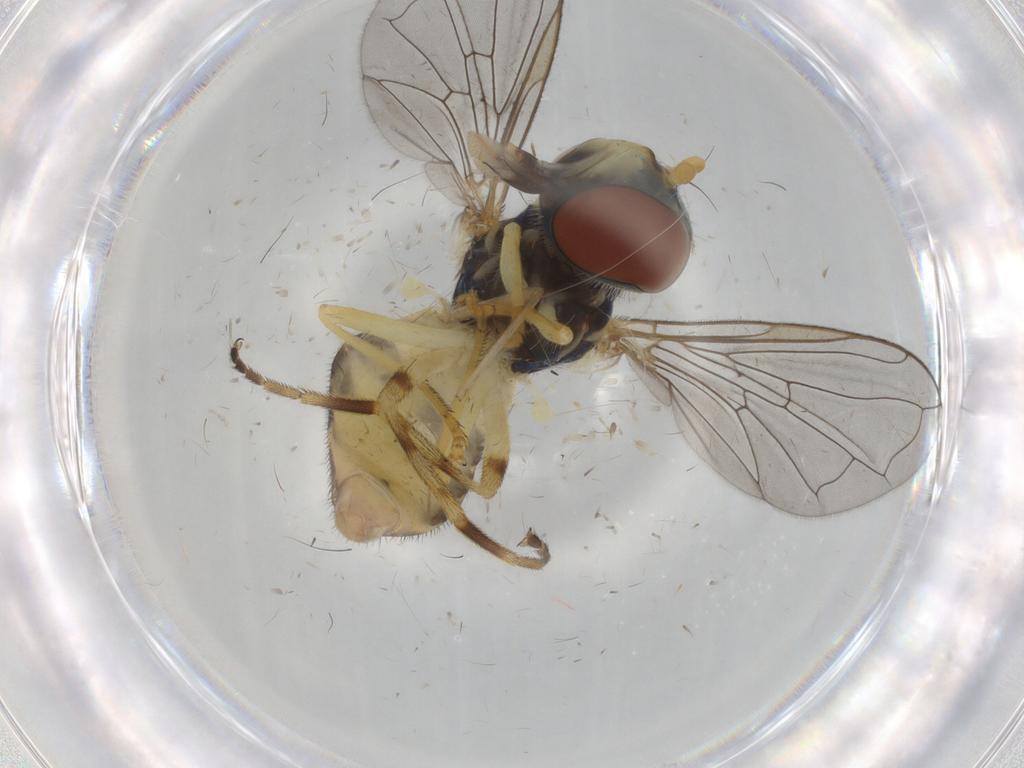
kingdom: Animalia
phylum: Arthropoda
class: Insecta
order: Diptera
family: Syrphidae
